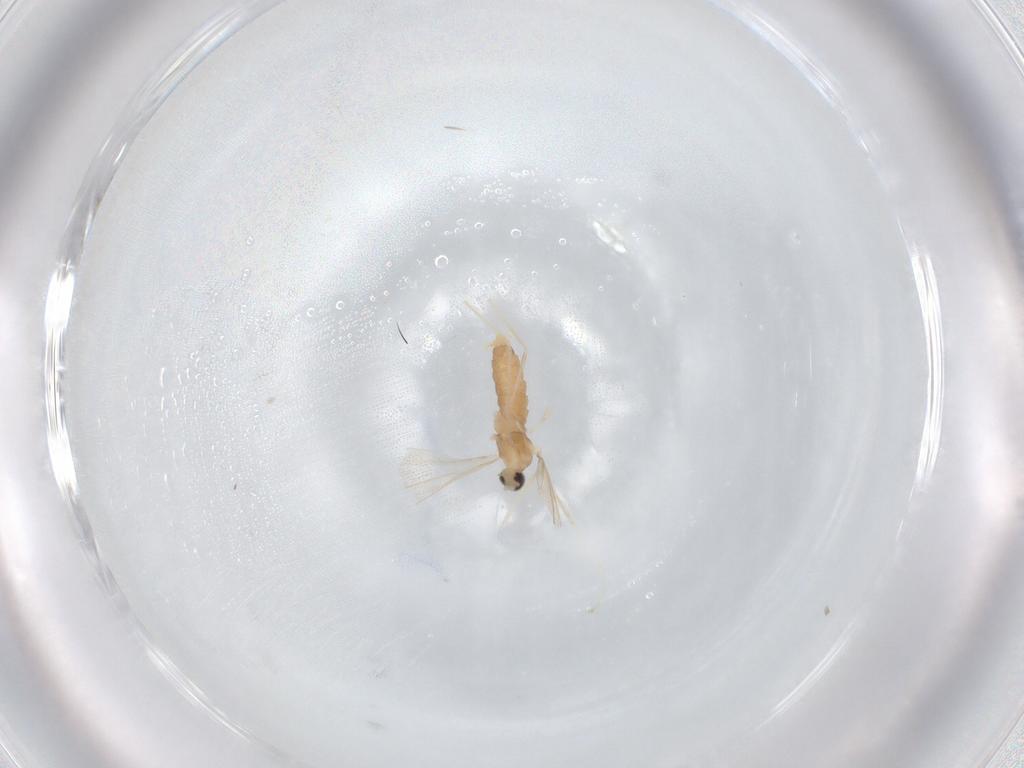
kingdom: Animalia
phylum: Arthropoda
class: Insecta
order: Diptera
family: Cecidomyiidae
